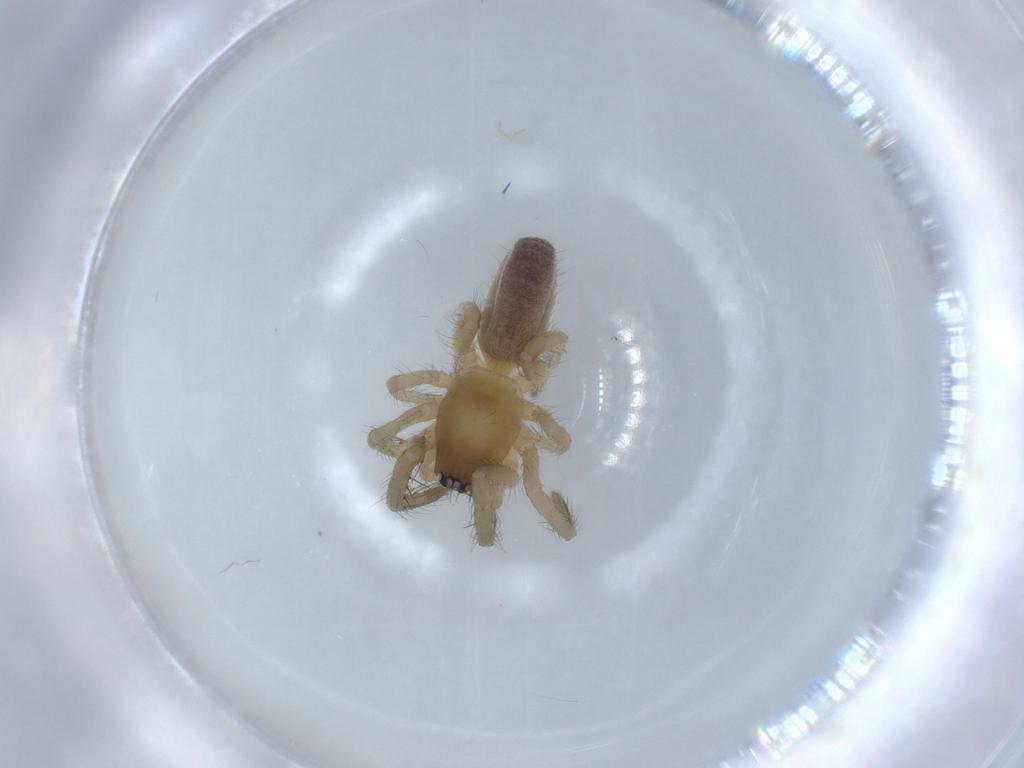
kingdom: Animalia
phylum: Arthropoda
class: Arachnida
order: Araneae
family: Segestriidae
